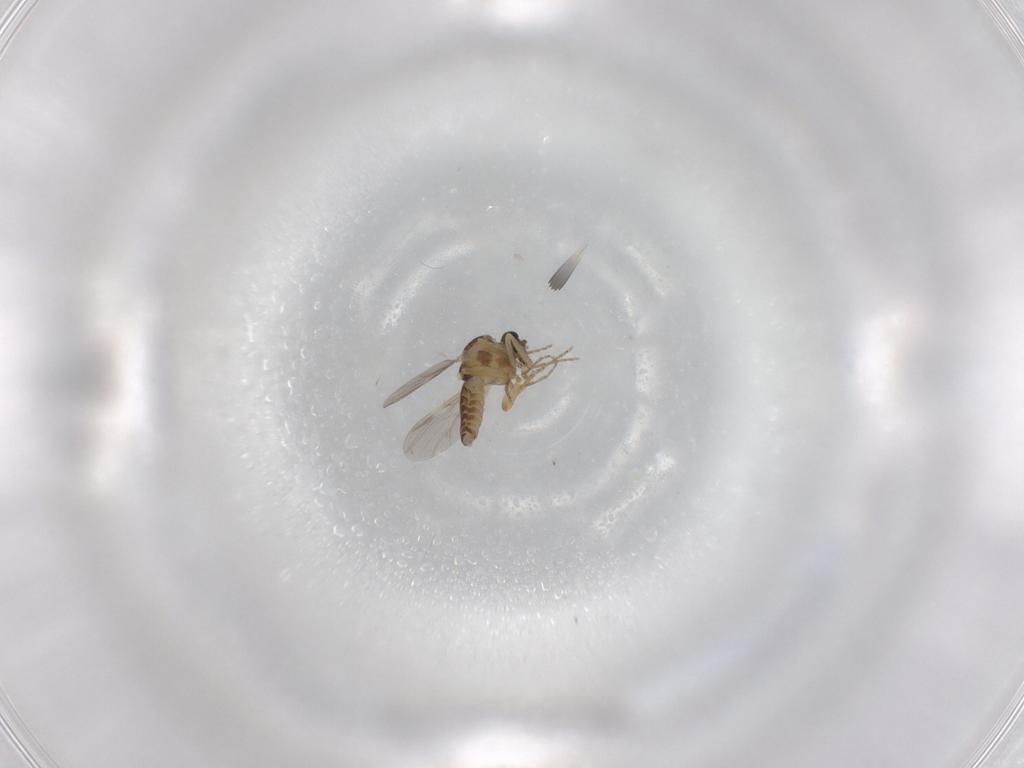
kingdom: Animalia
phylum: Arthropoda
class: Insecta
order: Diptera
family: Ceratopogonidae
